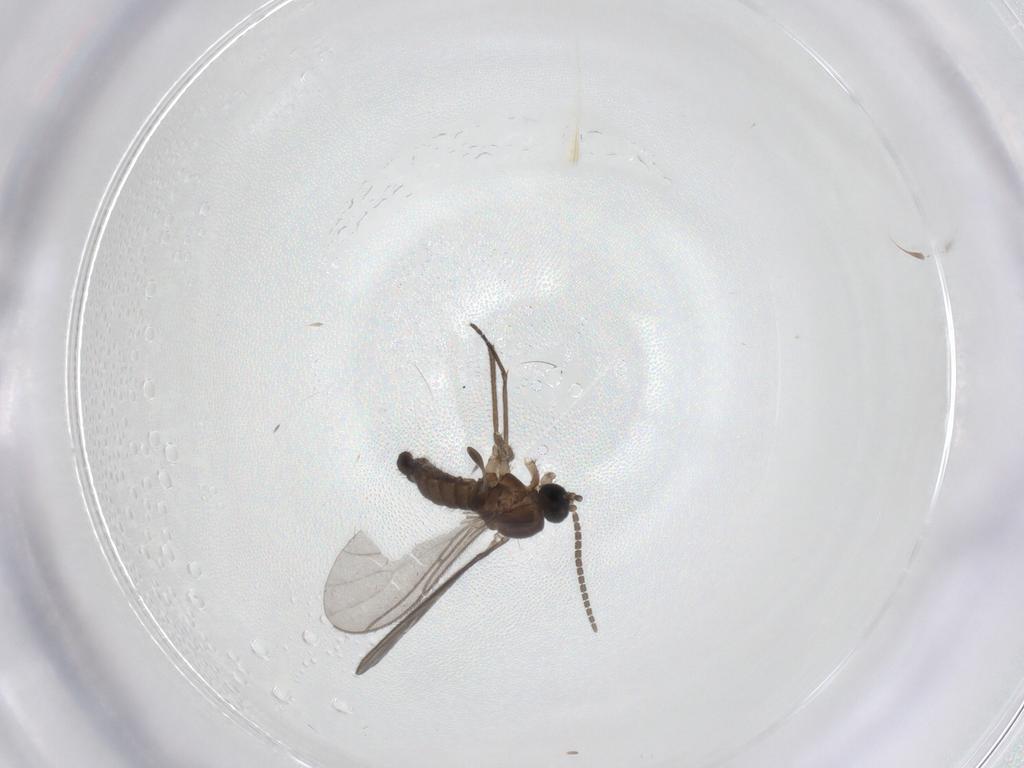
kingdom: Animalia
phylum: Arthropoda
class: Insecta
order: Diptera
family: Sciaridae
